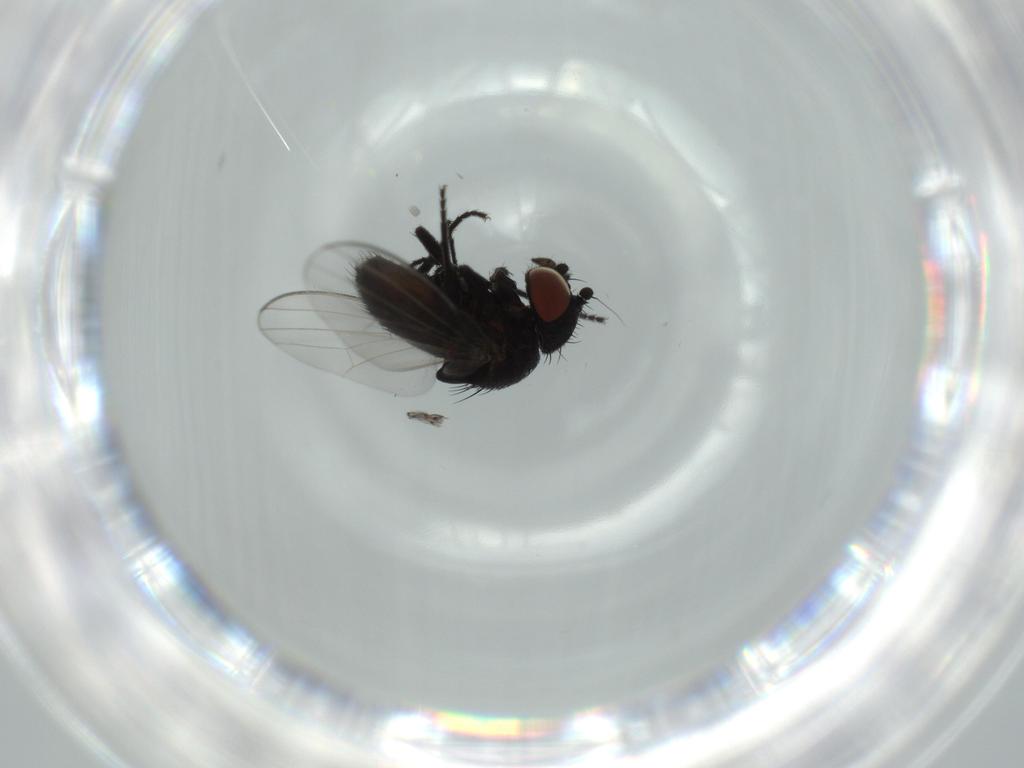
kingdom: Animalia
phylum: Arthropoda
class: Insecta
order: Diptera
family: Milichiidae
